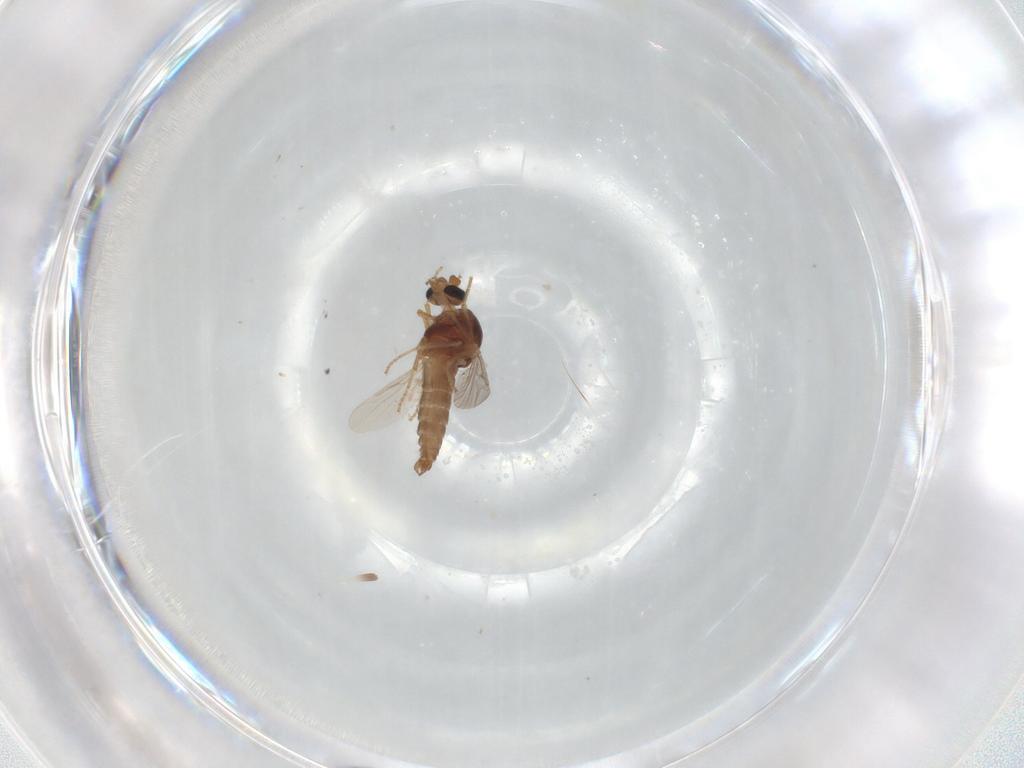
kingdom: Animalia
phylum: Arthropoda
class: Insecta
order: Diptera
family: Ceratopogonidae
